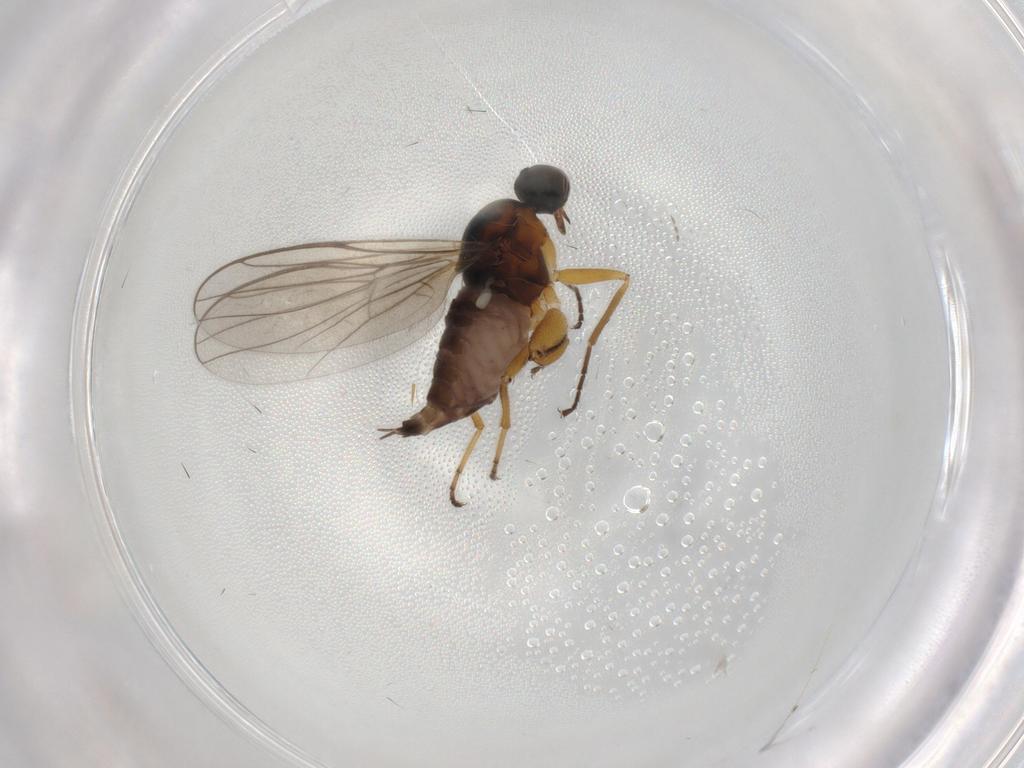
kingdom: Animalia
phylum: Arthropoda
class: Insecta
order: Diptera
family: Hybotidae
